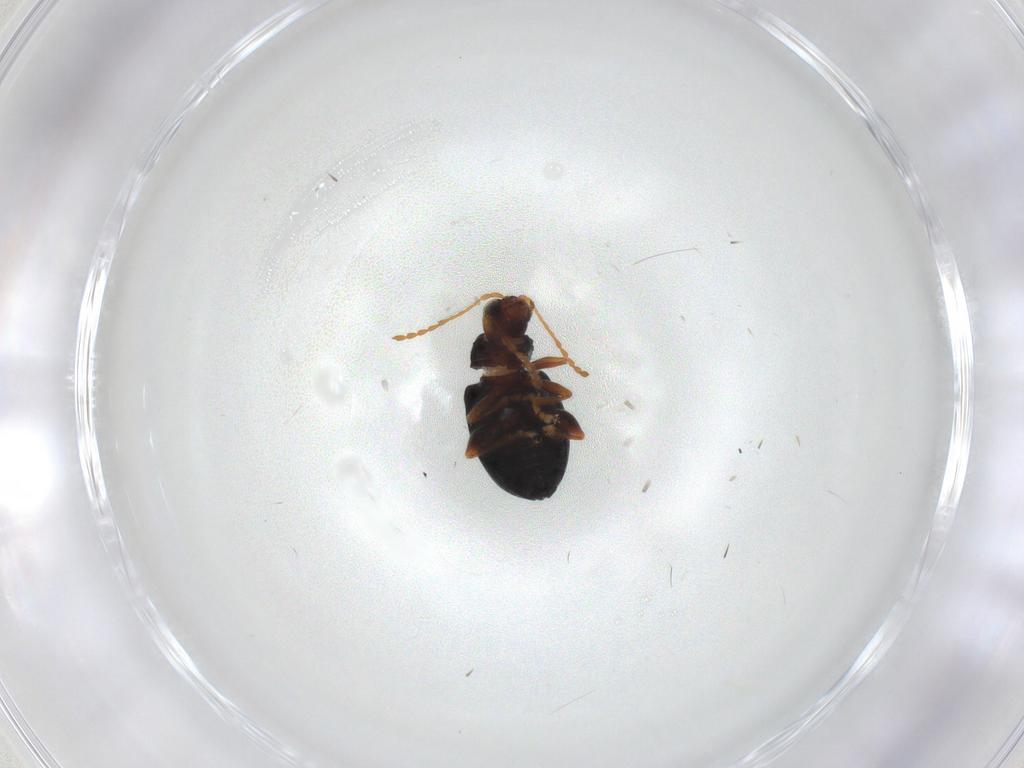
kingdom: Animalia
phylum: Arthropoda
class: Insecta
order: Coleoptera
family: Chrysomelidae
